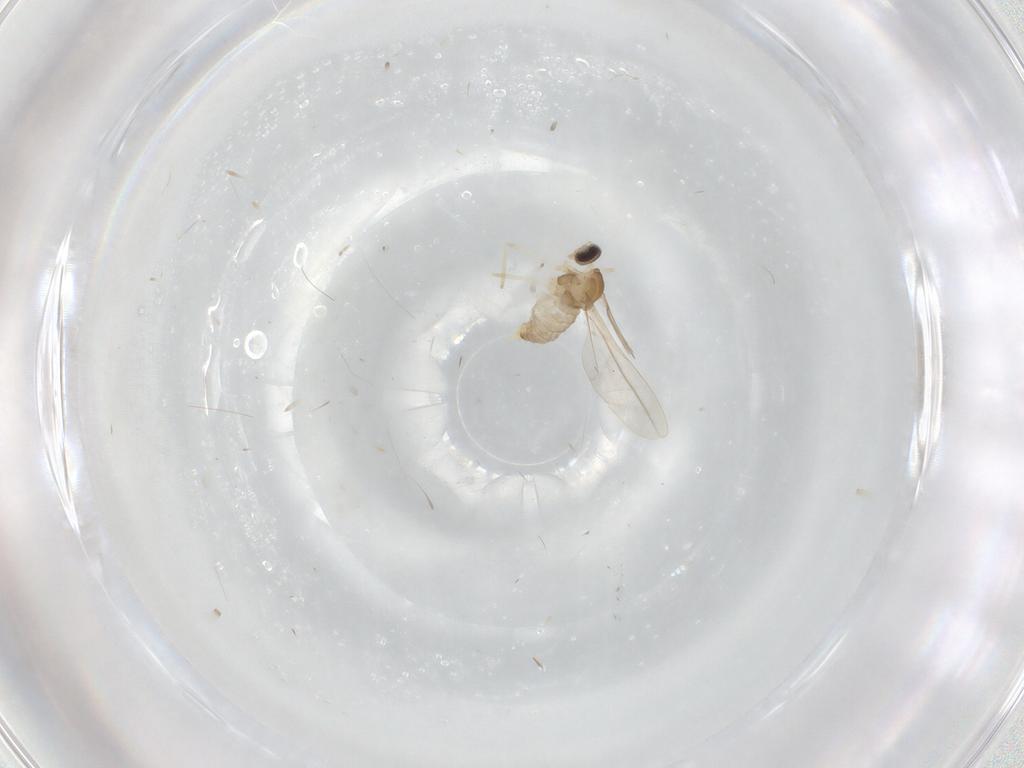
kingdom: Animalia
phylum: Arthropoda
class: Insecta
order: Diptera
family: Cecidomyiidae
